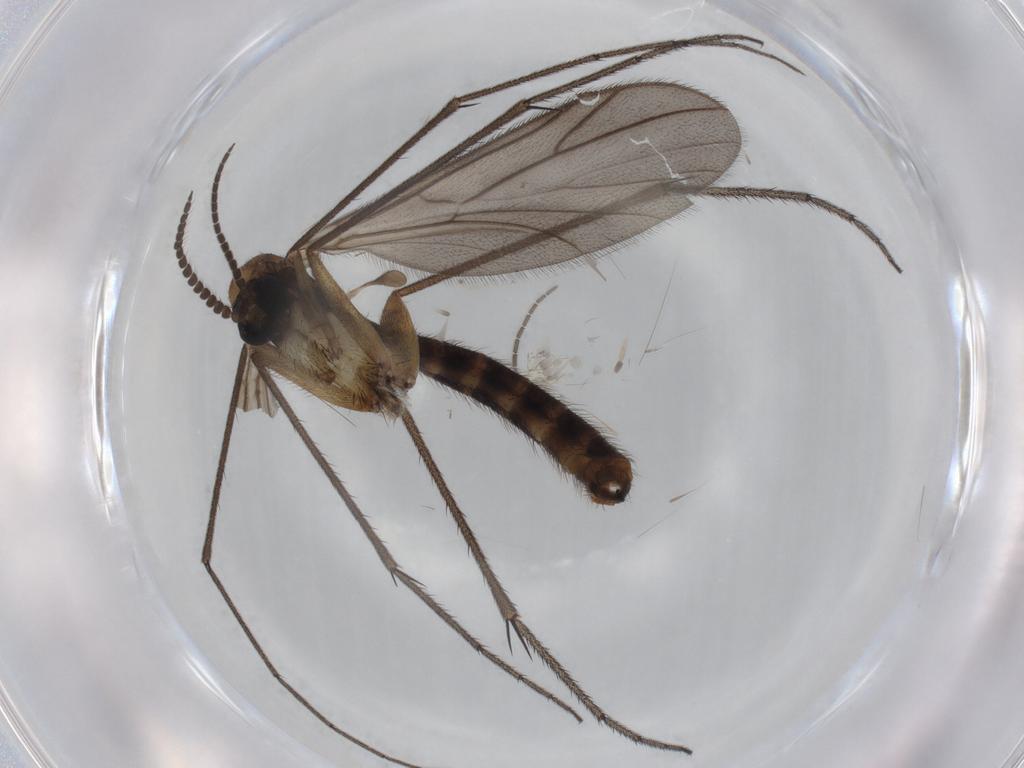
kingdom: Animalia
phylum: Arthropoda
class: Insecta
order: Diptera
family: Ditomyiidae
